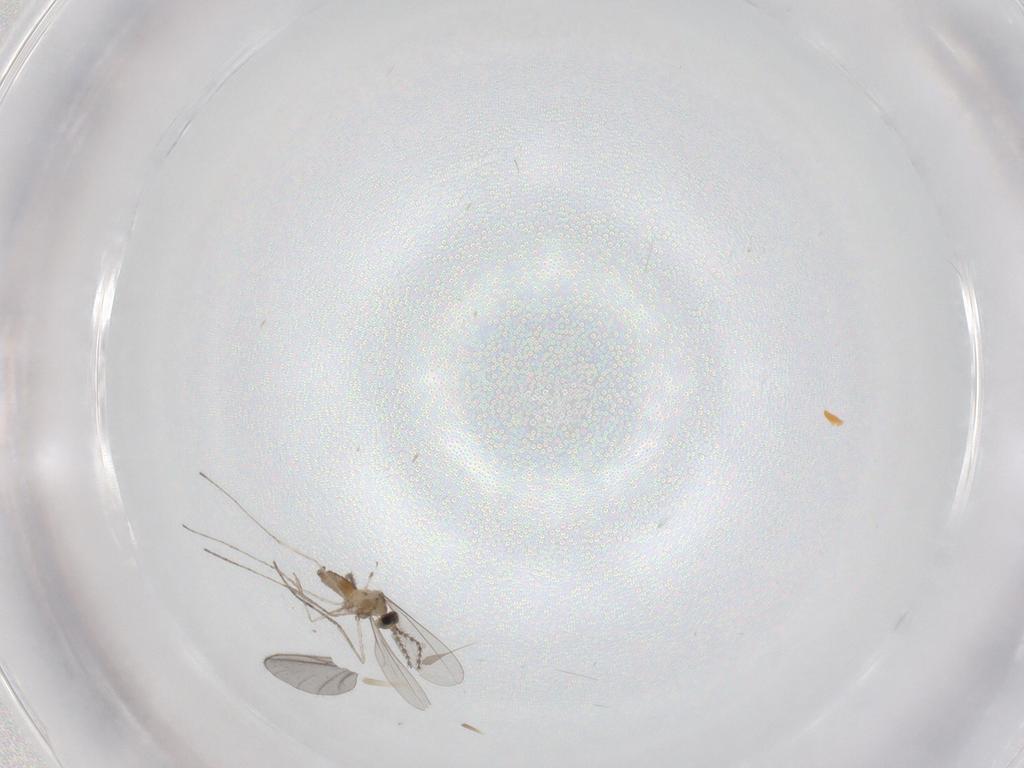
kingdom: Animalia
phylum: Arthropoda
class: Insecta
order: Diptera
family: Cecidomyiidae
